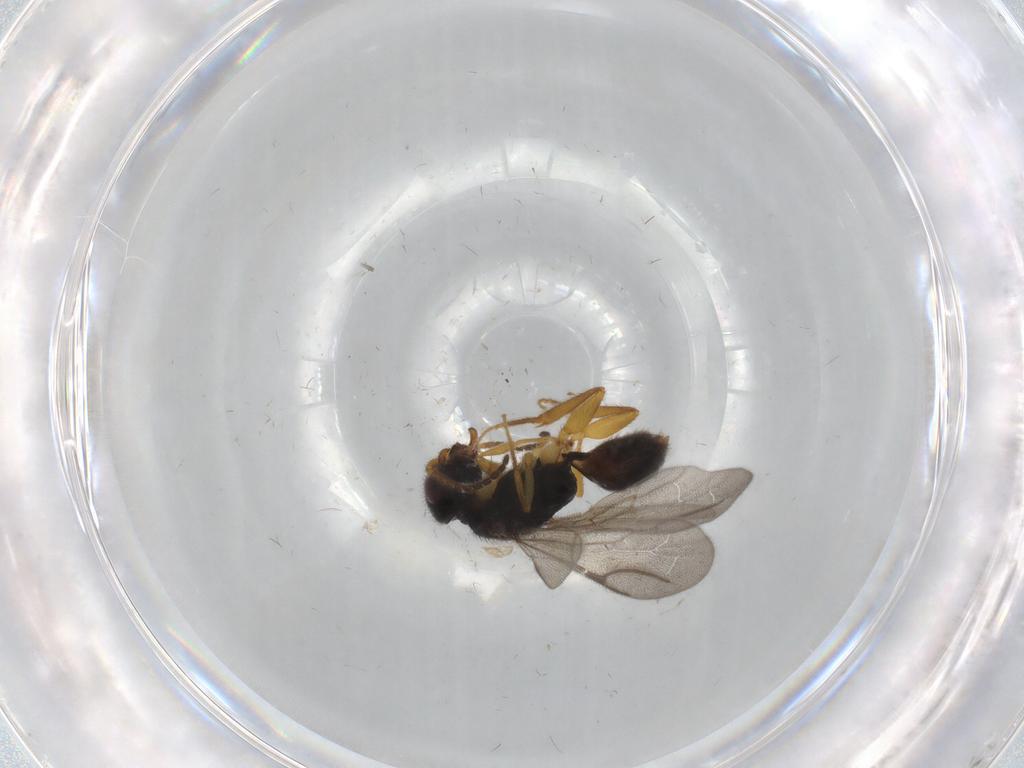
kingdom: Animalia
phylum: Arthropoda
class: Insecta
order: Hymenoptera
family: Bethylidae
